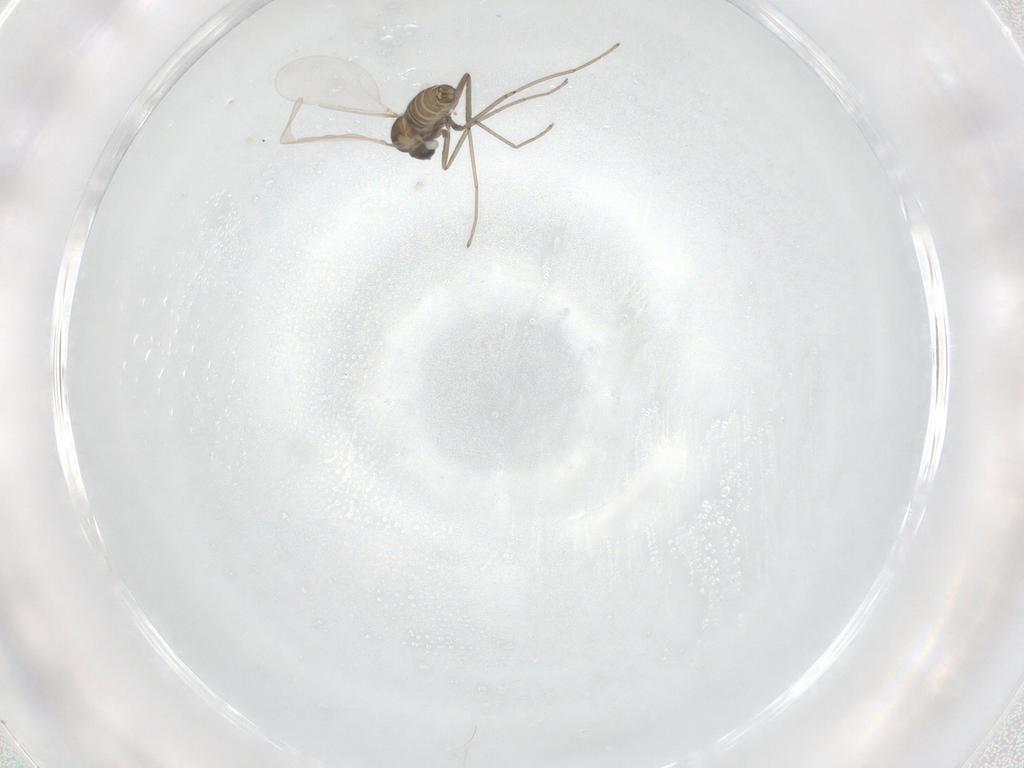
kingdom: Animalia
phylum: Arthropoda
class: Insecta
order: Diptera
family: Cecidomyiidae
